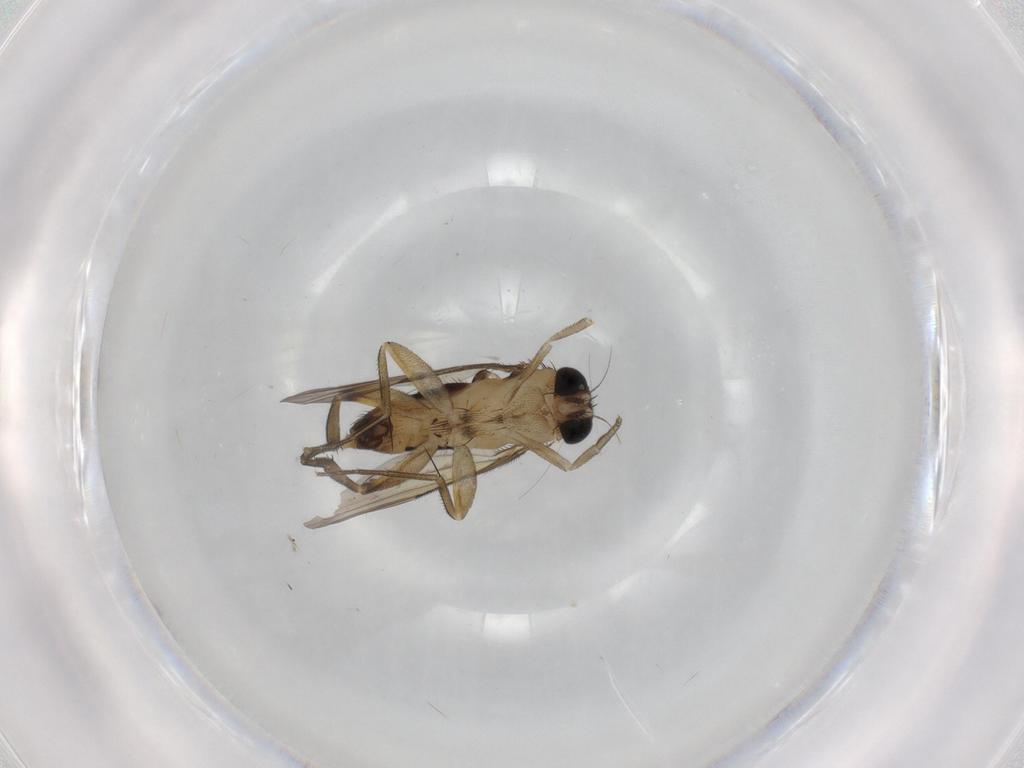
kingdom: Animalia
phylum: Arthropoda
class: Insecta
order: Diptera
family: Phoridae
